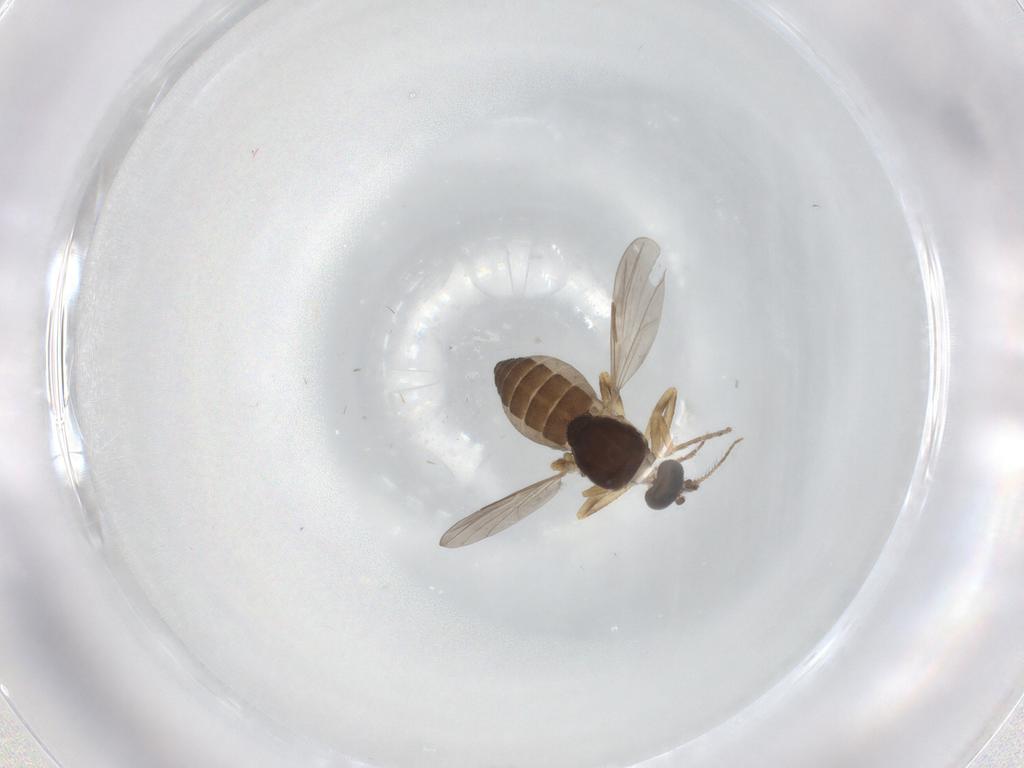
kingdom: Animalia
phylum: Arthropoda
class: Insecta
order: Diptera
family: Ceratopogonidae
